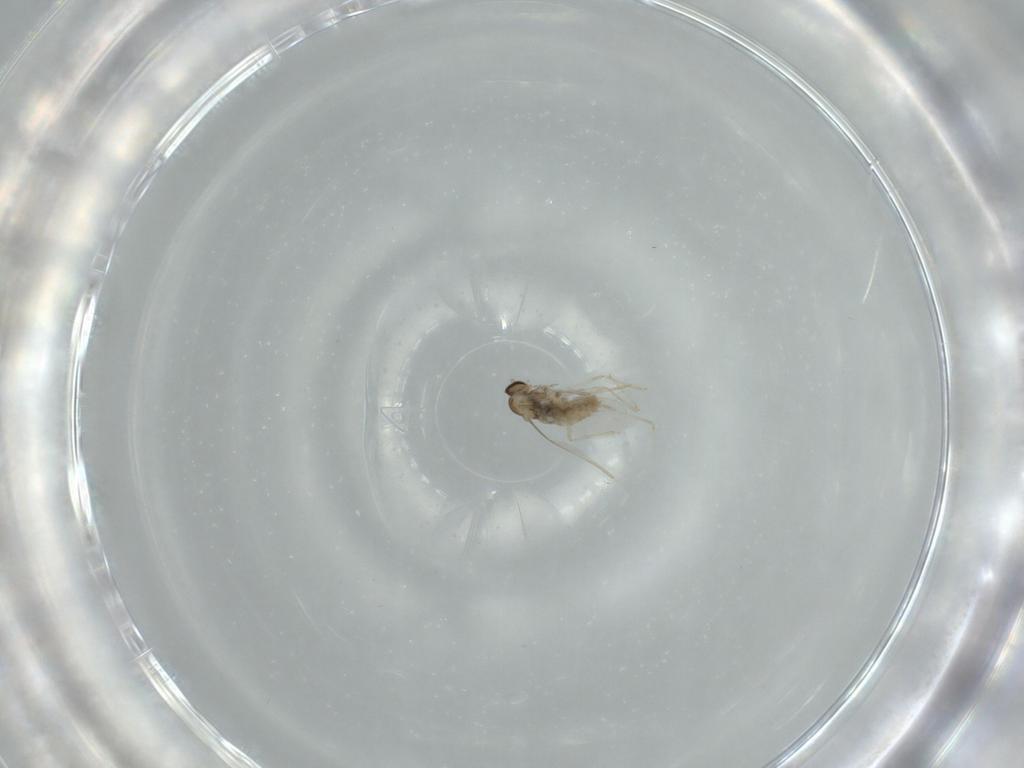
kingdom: Animalia
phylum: Arthropoda
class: Insecta
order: Diptera
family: Cecidomyiidae
